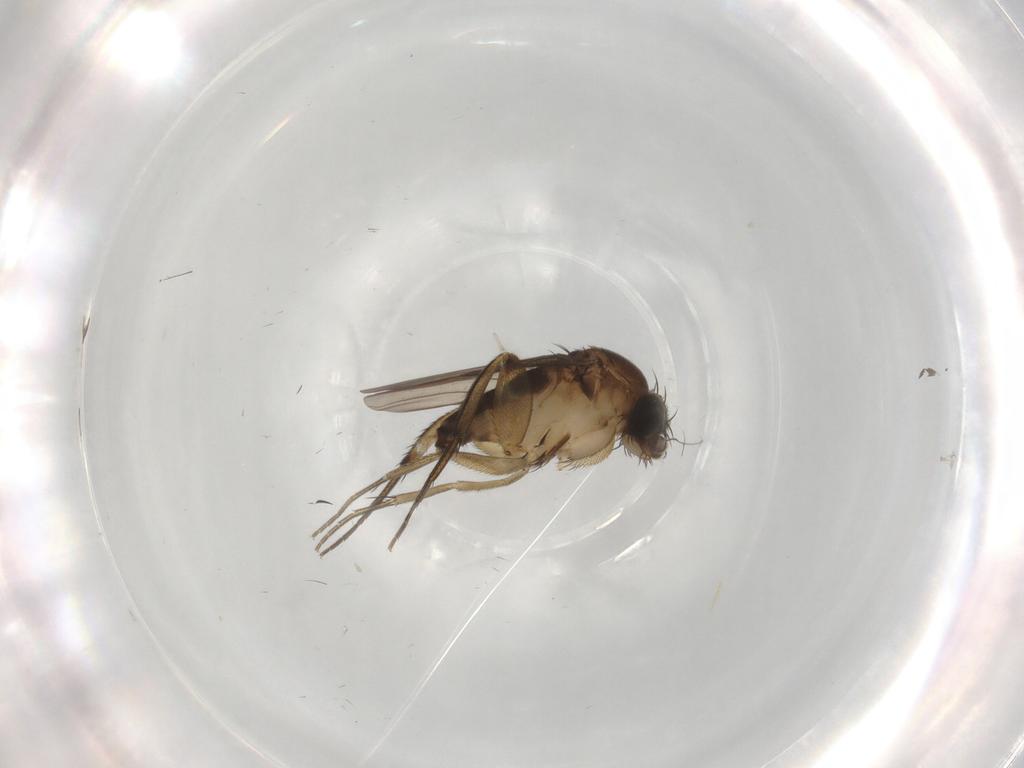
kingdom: Animalia
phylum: Arthropoda
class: Insecta
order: Diptera
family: Phoridae
